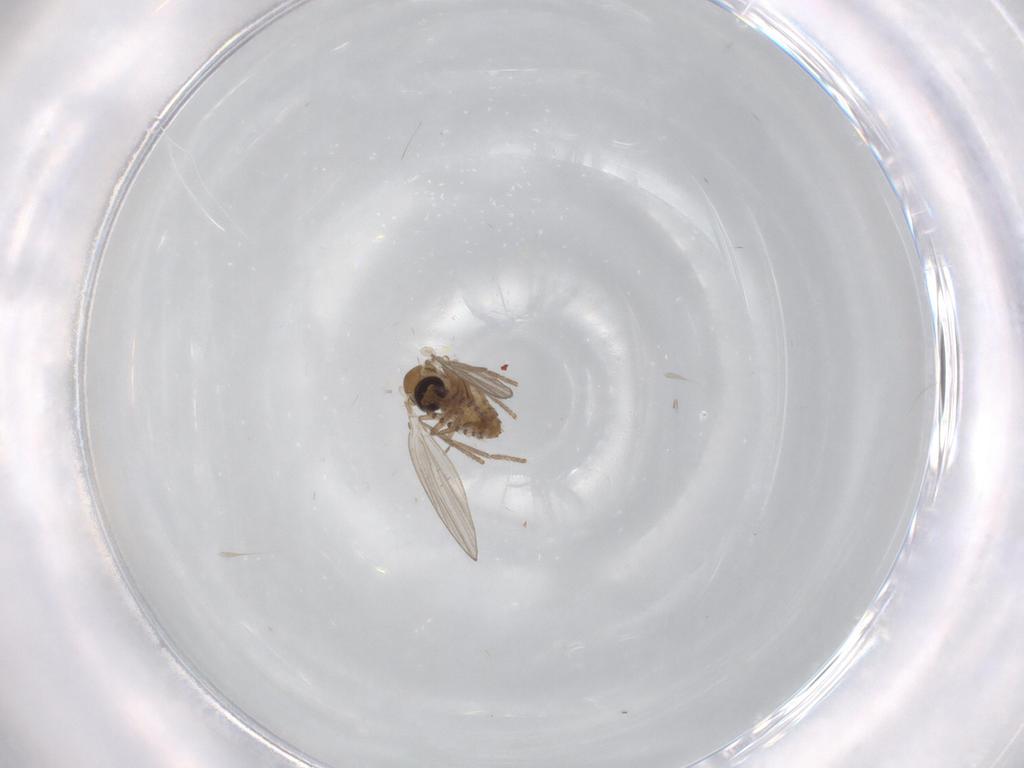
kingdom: Animalia
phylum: Arthropoda
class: Insecta
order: Diptera
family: Psychodidae
